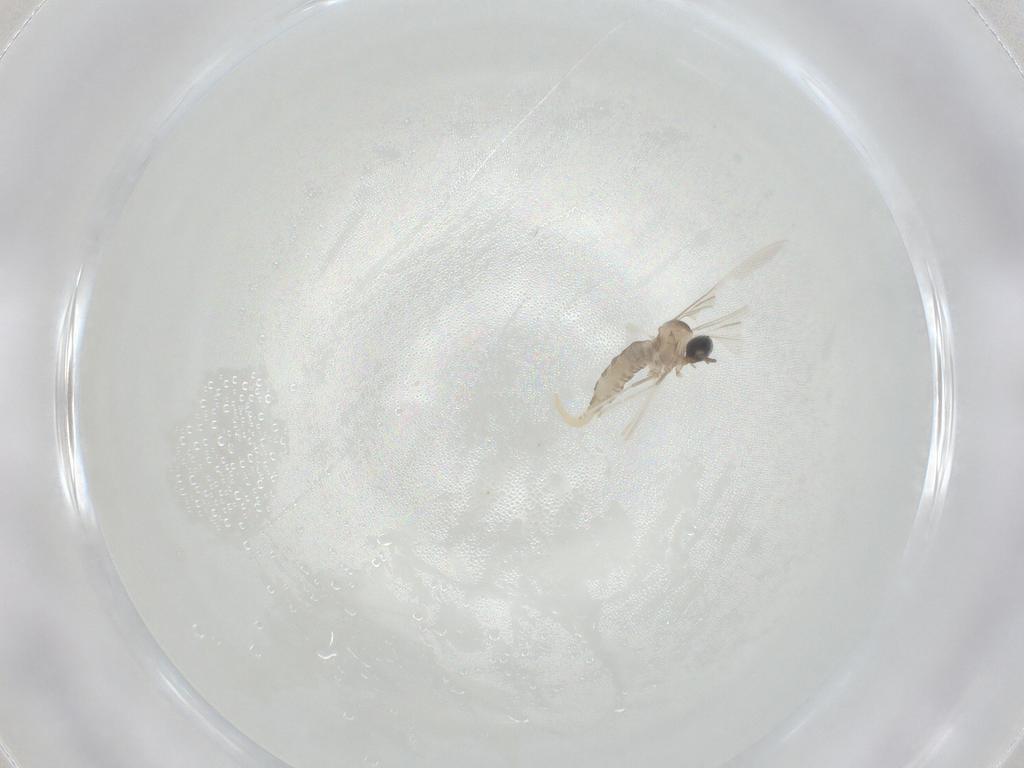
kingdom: Animalia
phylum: Arthropoda
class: Insecta
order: Diptera
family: Cecidomyiidae
